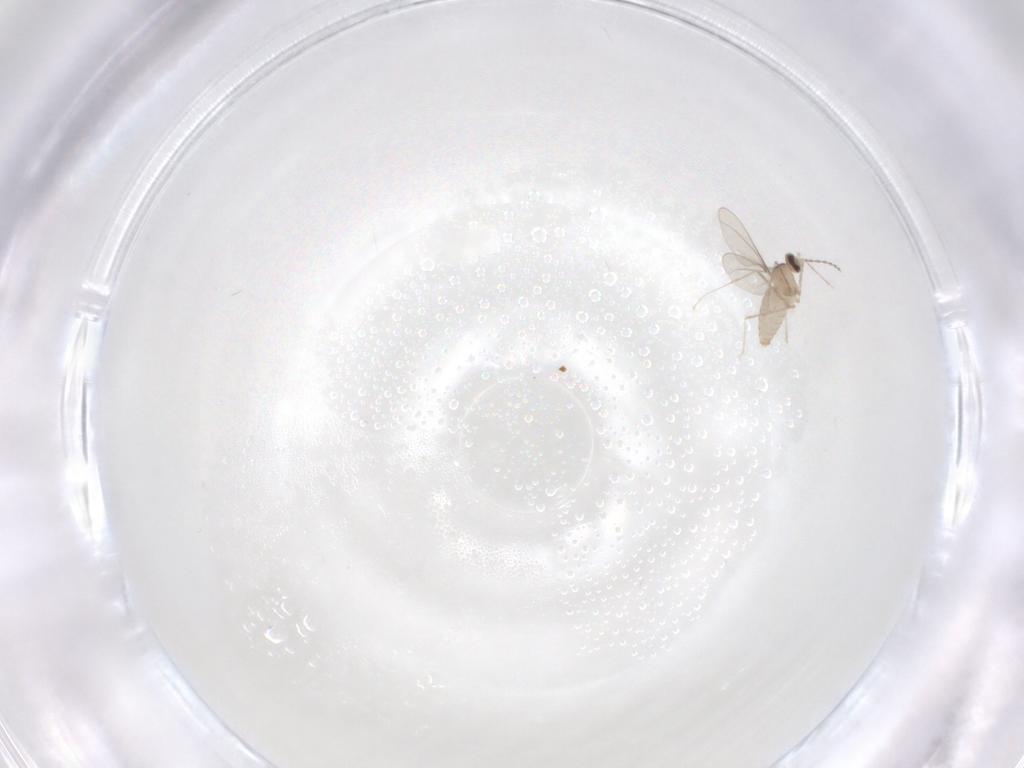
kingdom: Animalia
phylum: Arthropoda
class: Insecta
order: Diptera
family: Cecidomyiidae
